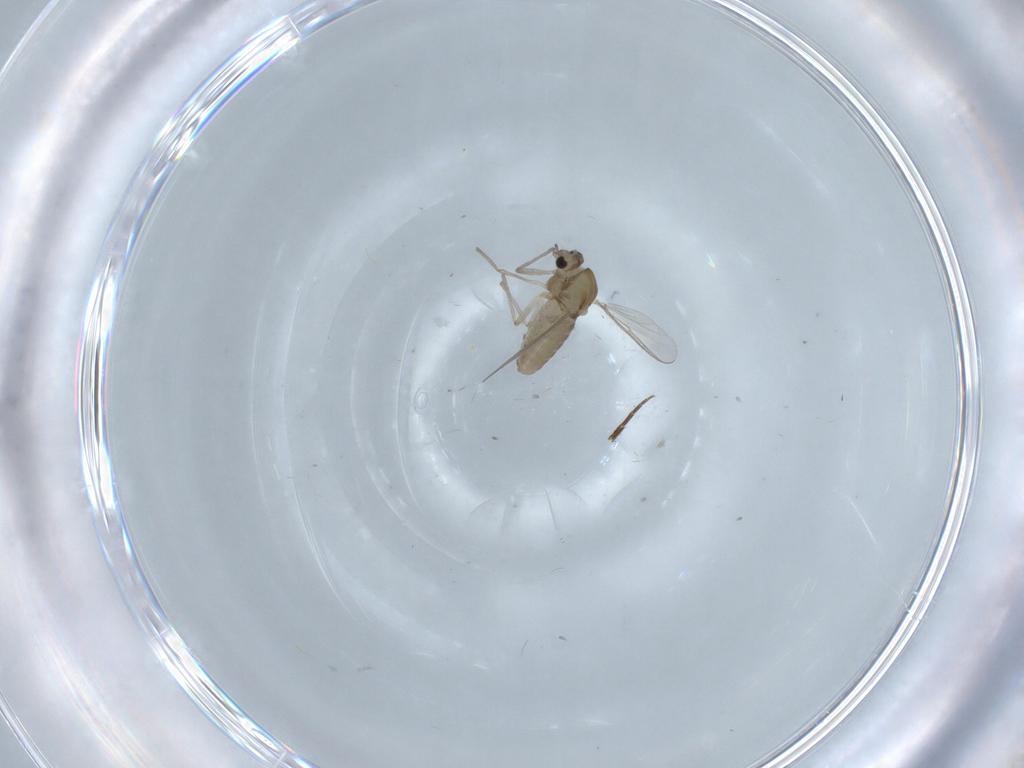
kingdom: Animalia
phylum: Arthropoda
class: Insecta
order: Diptera
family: Chironomidae
